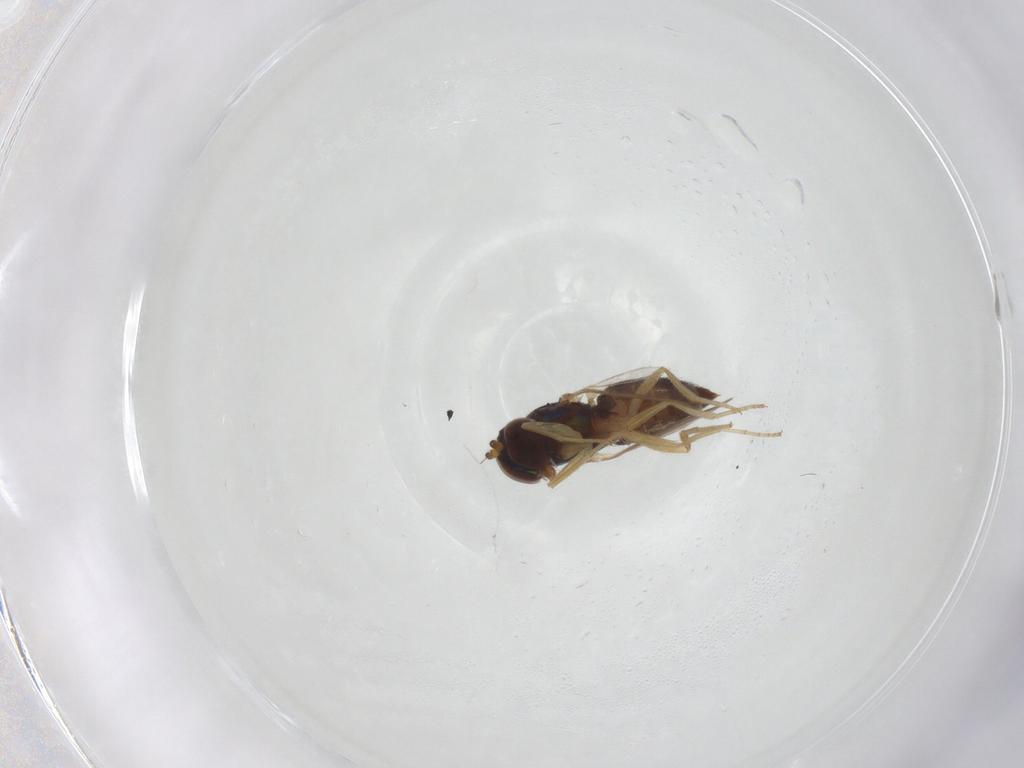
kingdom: Animalia
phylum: Arthropoda
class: Insecta
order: Diptera
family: Dolichopodidae
